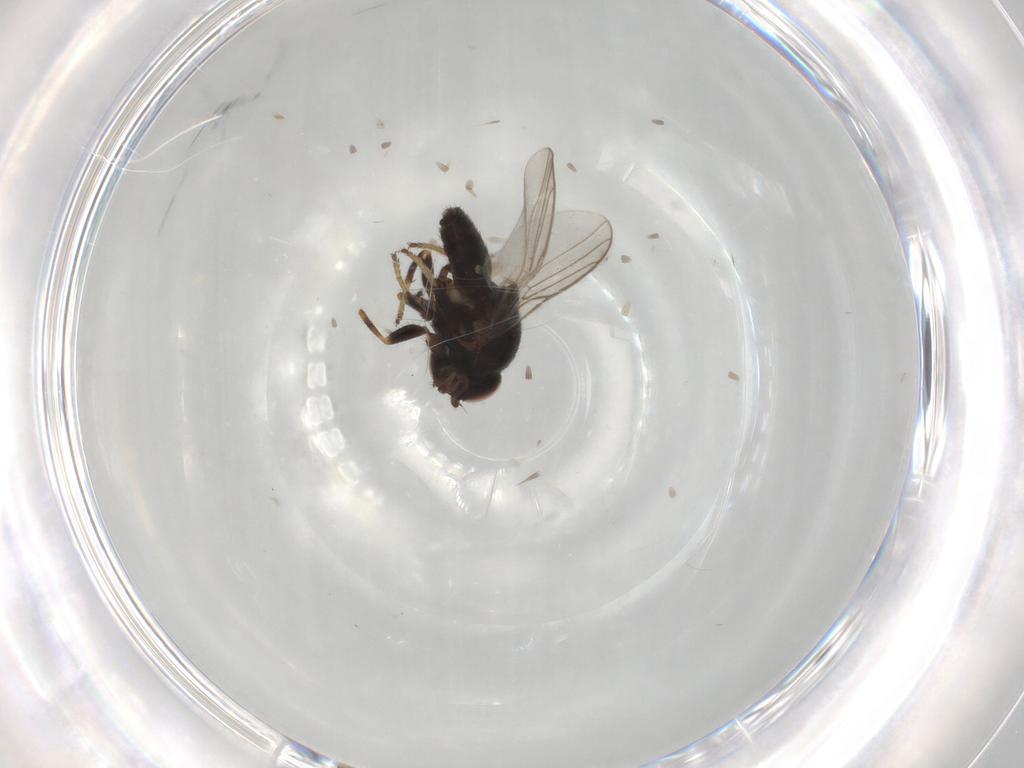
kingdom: Animalia
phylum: Arthropoda
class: Insecta
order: Diptera
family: Chloropidae
